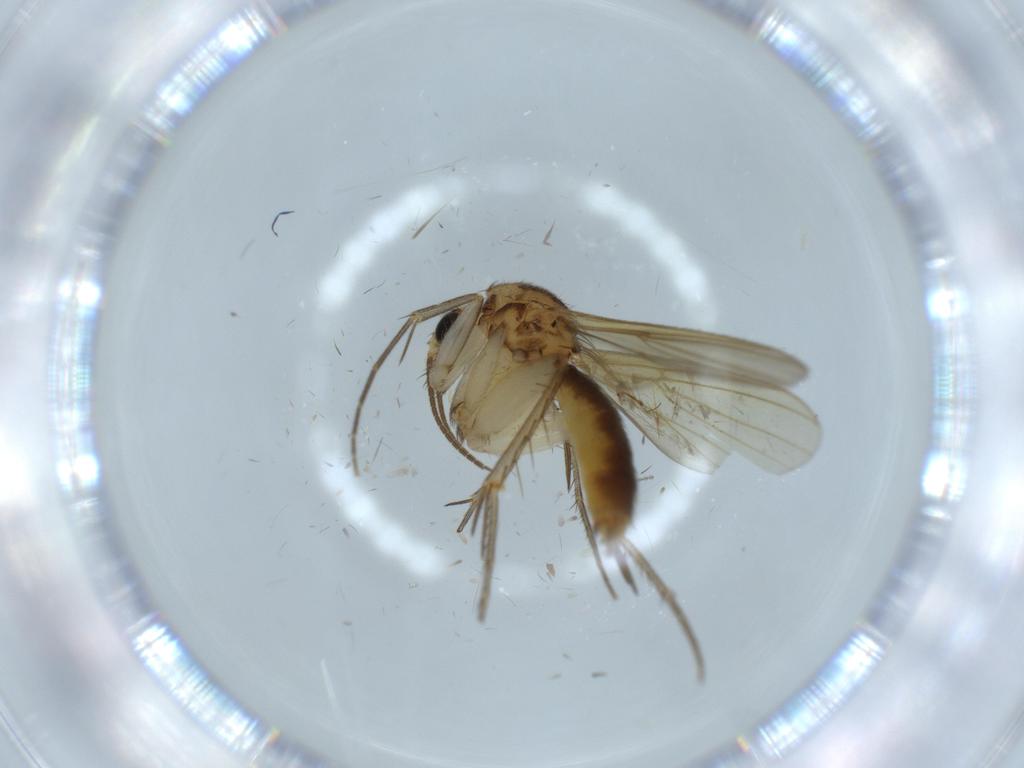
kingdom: Animalia
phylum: Arthropoda
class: Insecta
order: Diptera
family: Mycetophilidae
